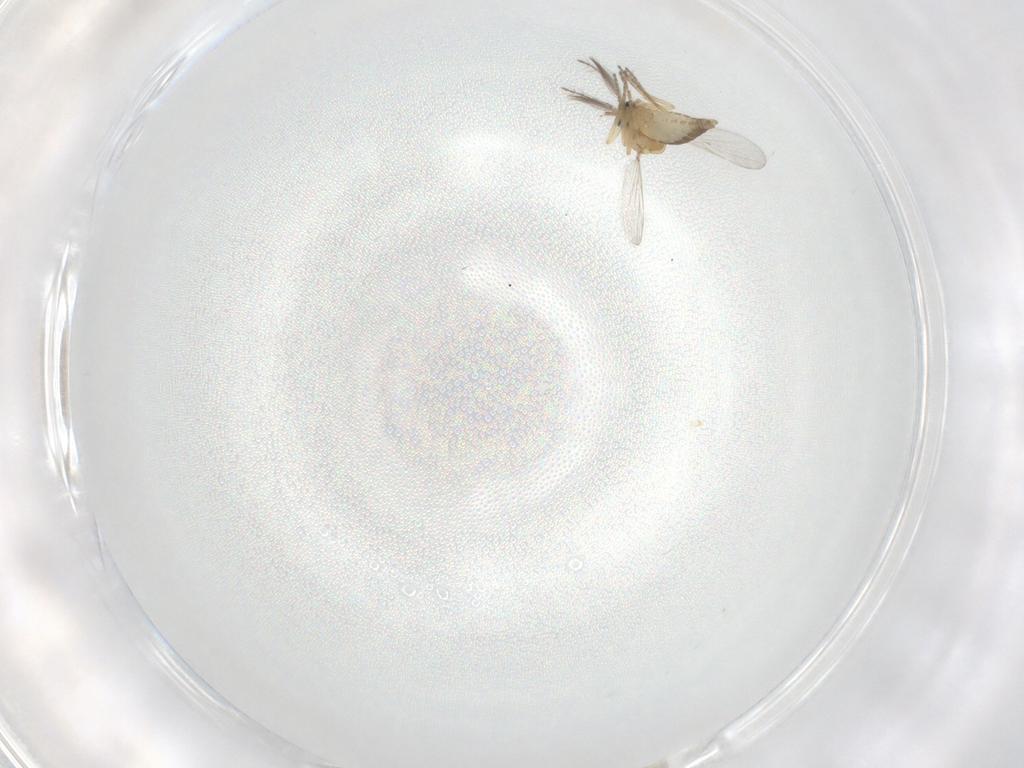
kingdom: Animalia
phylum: Arthropoda
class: Insecta
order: Diptera
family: Ceratopogonidae
